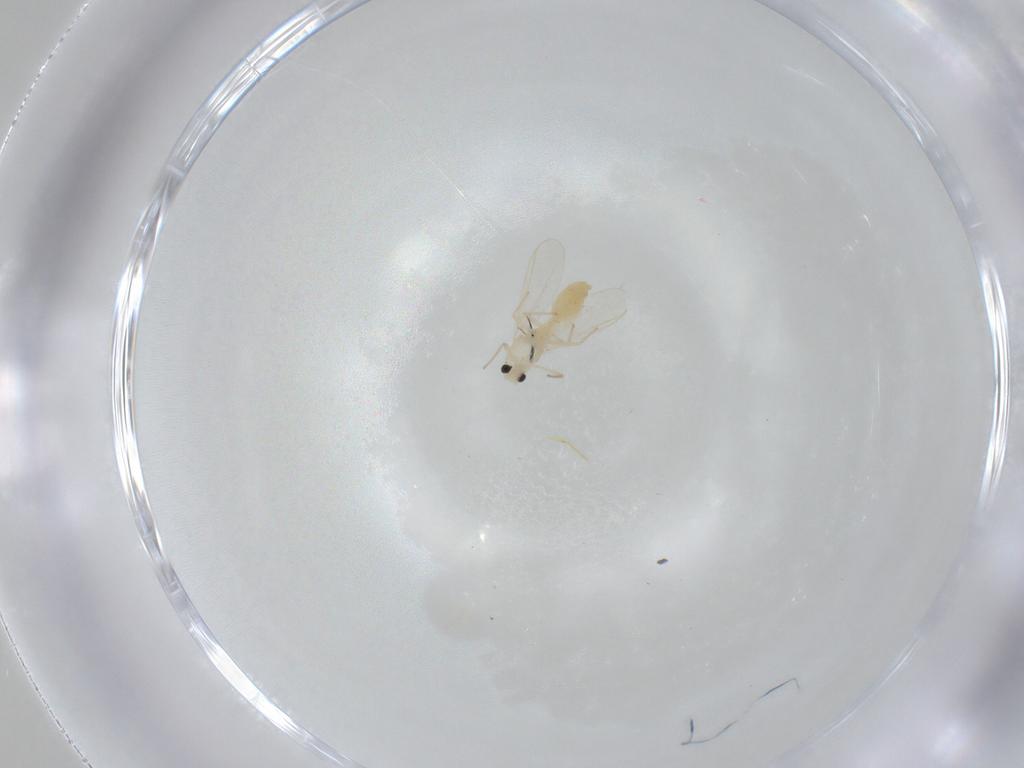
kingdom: Animalia
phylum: Arthropoda
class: Insecta
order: Diptera
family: Chironomidae
